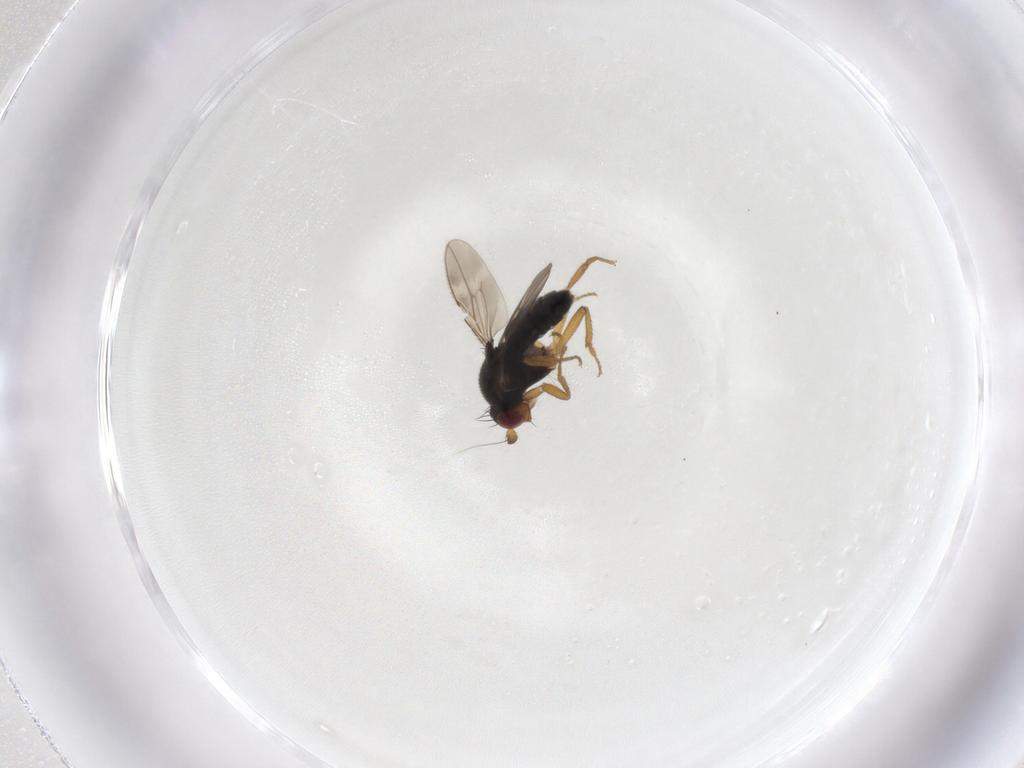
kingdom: Animalia
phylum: Arthropoda
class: Insecta
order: Diptera
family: Sphaeroceridae
